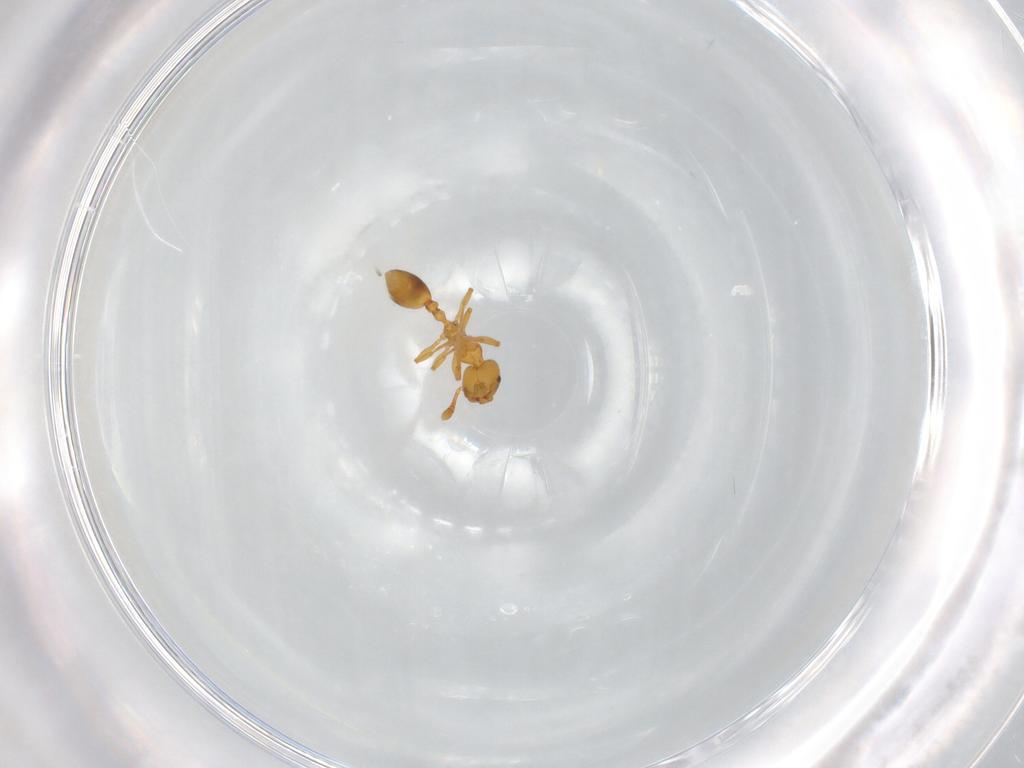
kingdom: Animalia
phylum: Arthropoda
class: Insecta
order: Hymenoptera
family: Formicidae
